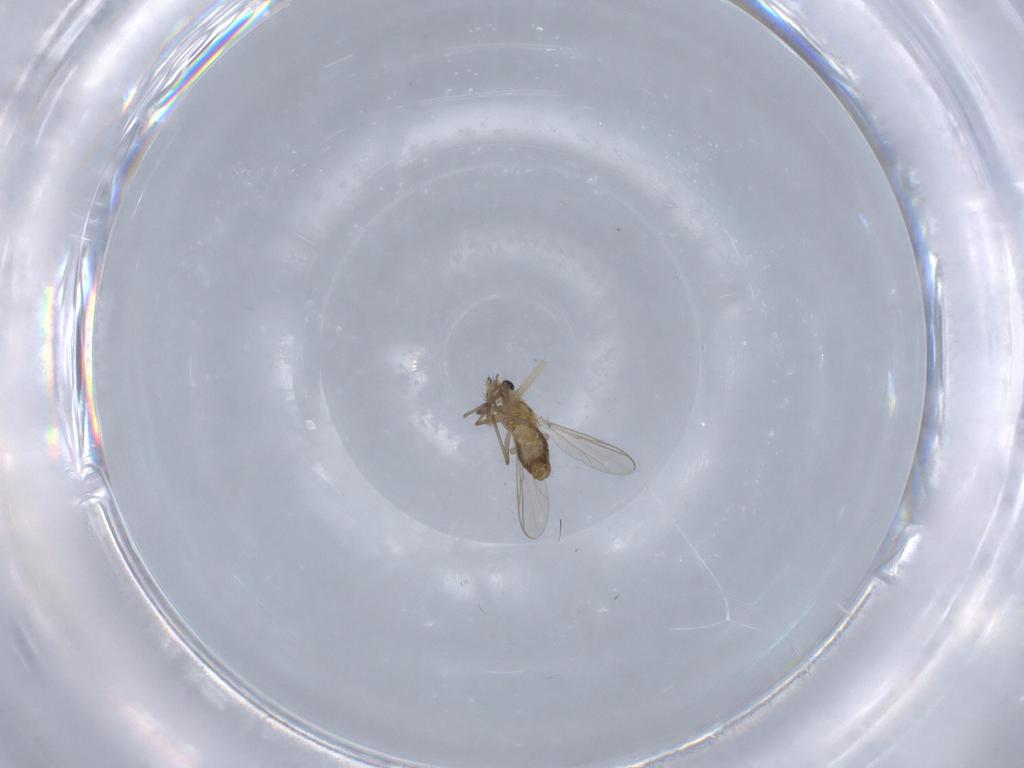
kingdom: Animalia
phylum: Arthropoda
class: Insecta
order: Diptera
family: Chironomidae
